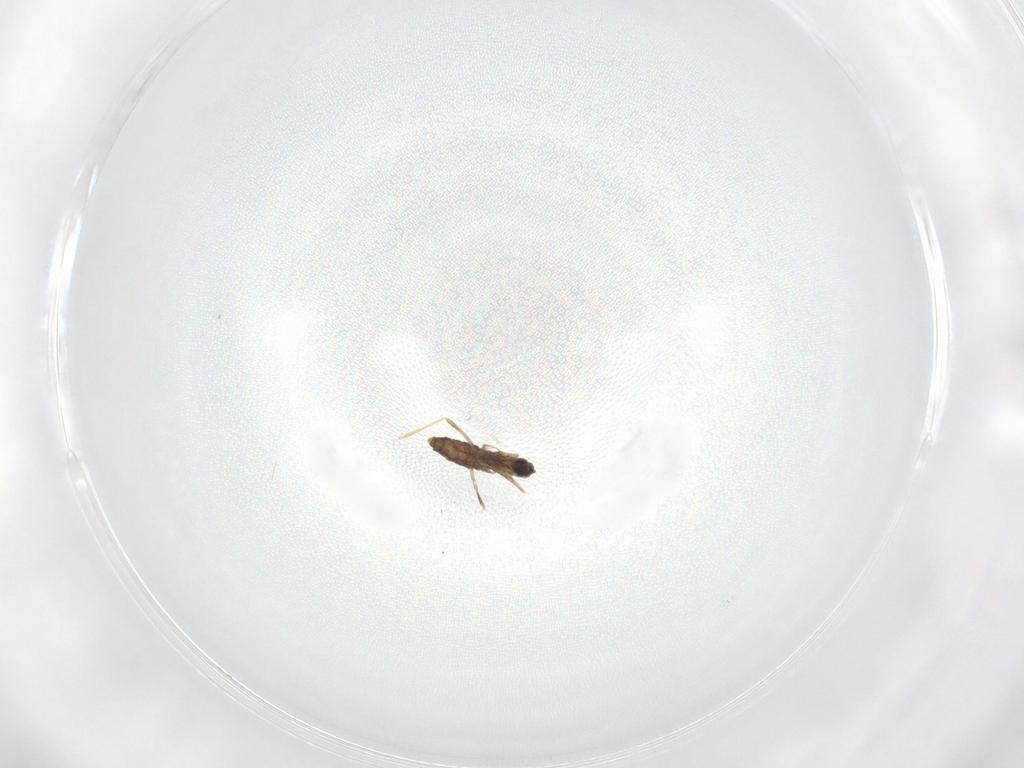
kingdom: Animalia
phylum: Arthropoda
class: Insecta
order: Diptera
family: Cecidomyiidae
